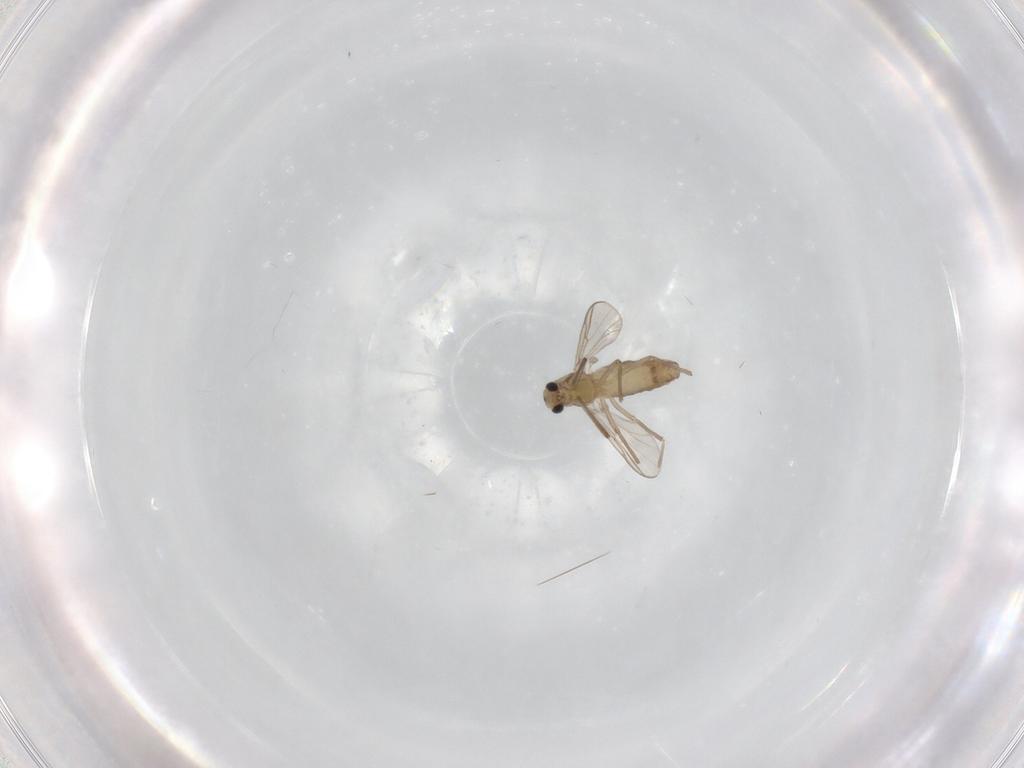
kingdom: Animalia
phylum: Arthropoda
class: Insecta
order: Diptera
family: Chironomidae
